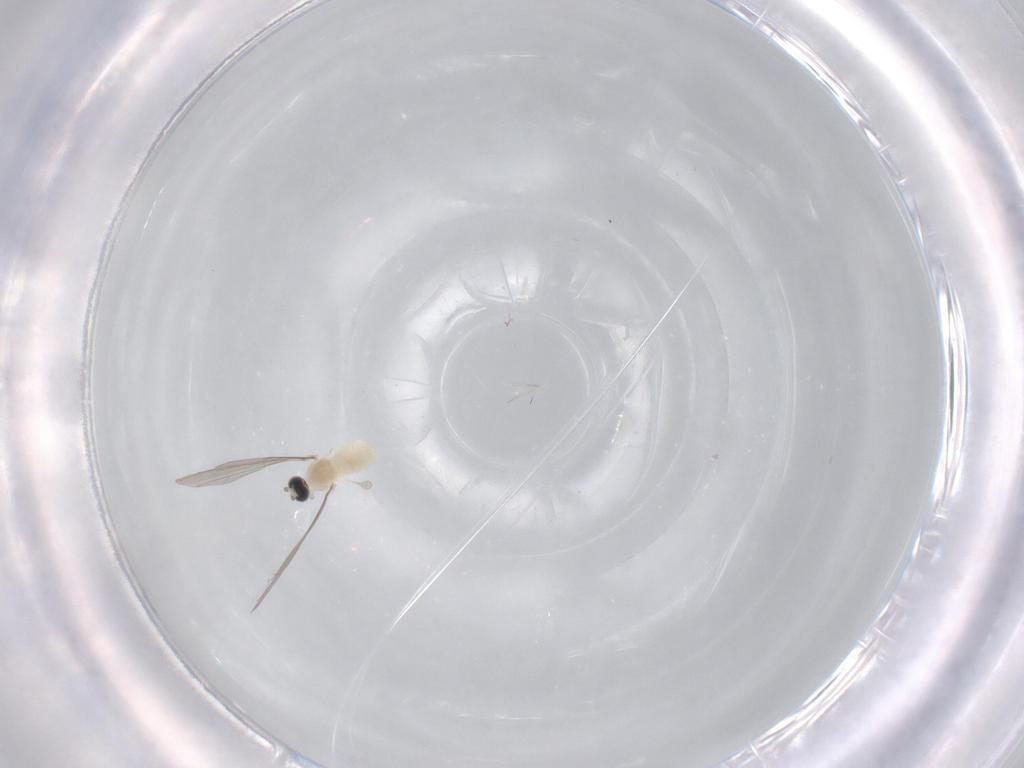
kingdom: Animalia
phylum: Arthropoda
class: Insecta
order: Diptera
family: Cecidomyiidae
